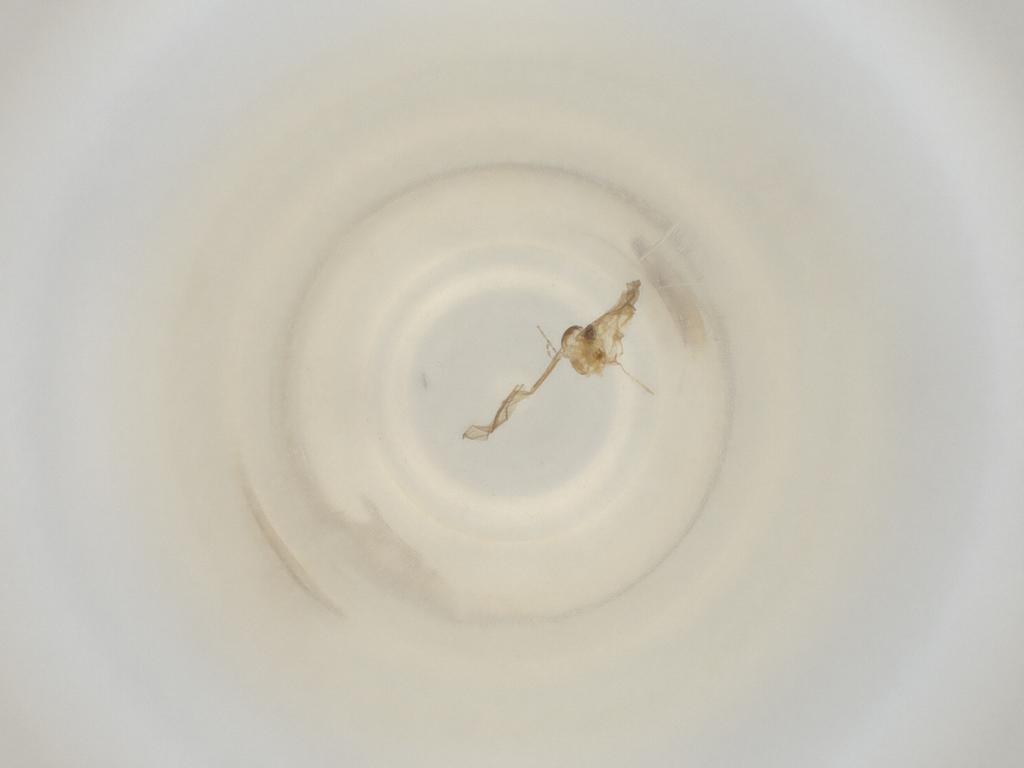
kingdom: Animalia
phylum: Arthropoda
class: Insecta
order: Diptera
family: Cecidomyiidae
